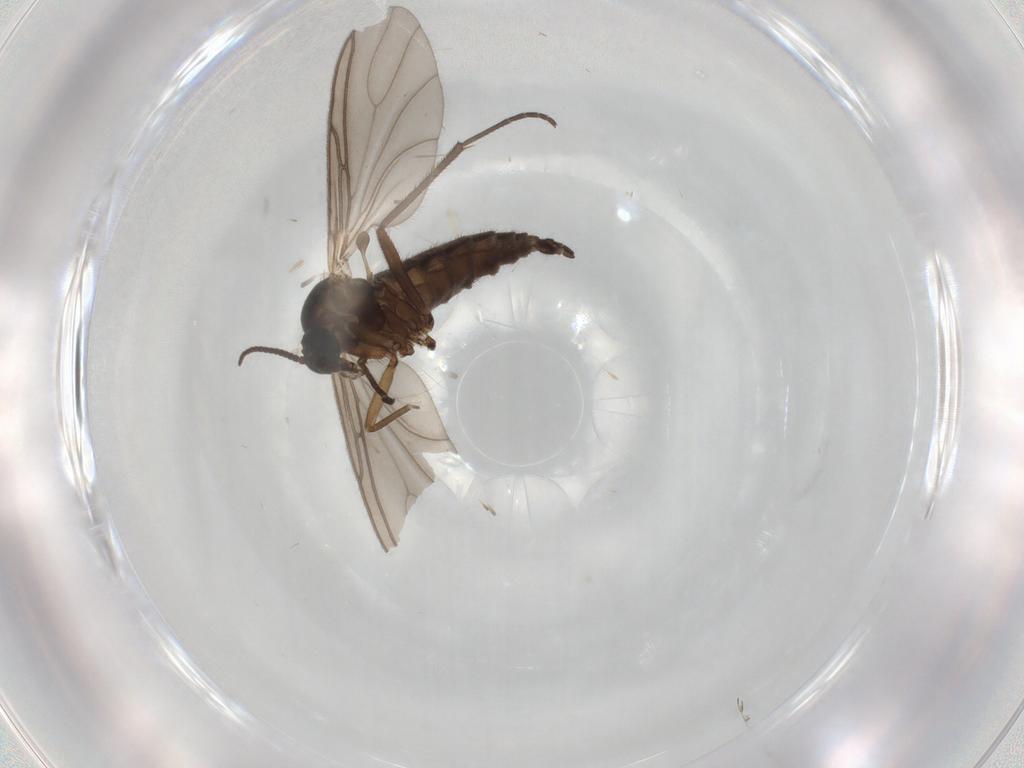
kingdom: Animalia
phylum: Arthropoda
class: Insecta
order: Diptera
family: Sciaridae
